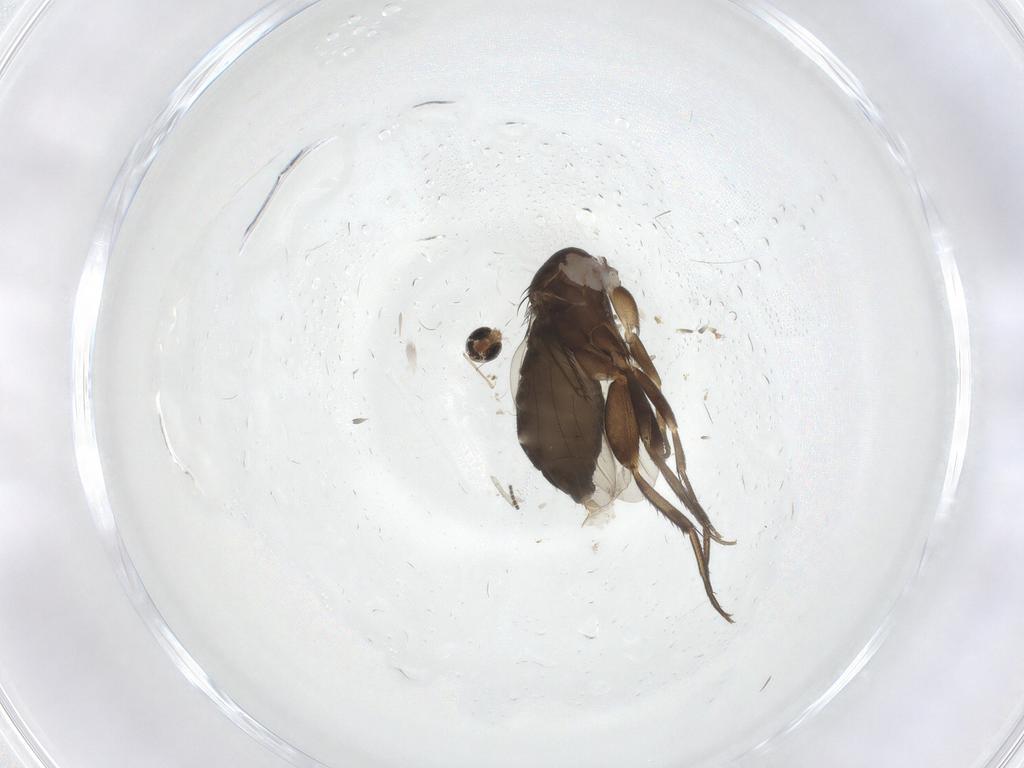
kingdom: Animalia
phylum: Arthropoda
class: Insecta
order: Diptera
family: Phoridae
